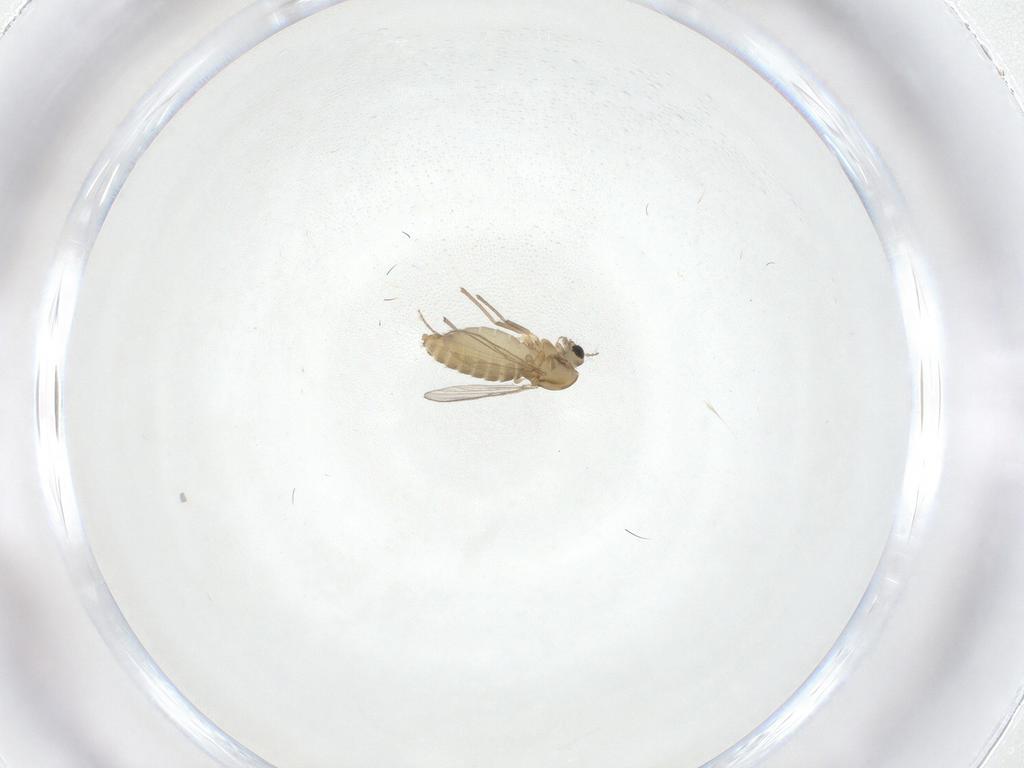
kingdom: Animalia
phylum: Arthropoda
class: Insecta
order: Diptera
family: Chironomidae
